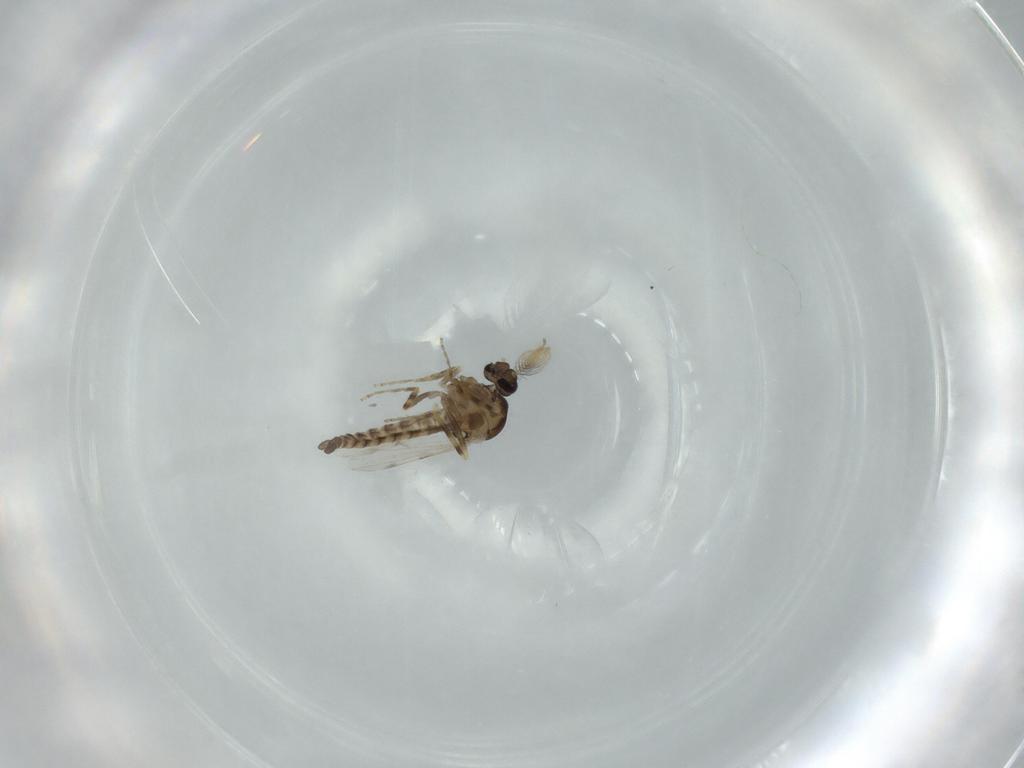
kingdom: Animalia
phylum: Arthropoda
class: Insecta
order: Diptera
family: Ceratopogonidae
